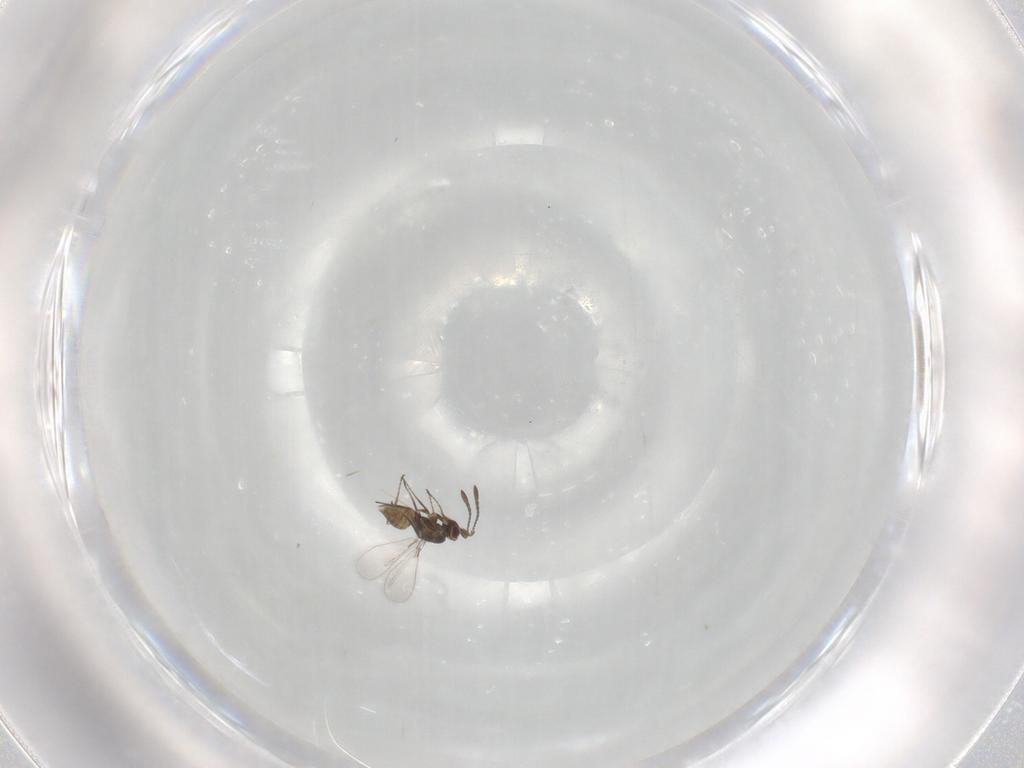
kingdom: Animalia
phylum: Arthropoda
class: Insecta
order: Hymenoptera
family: Mymaridae
